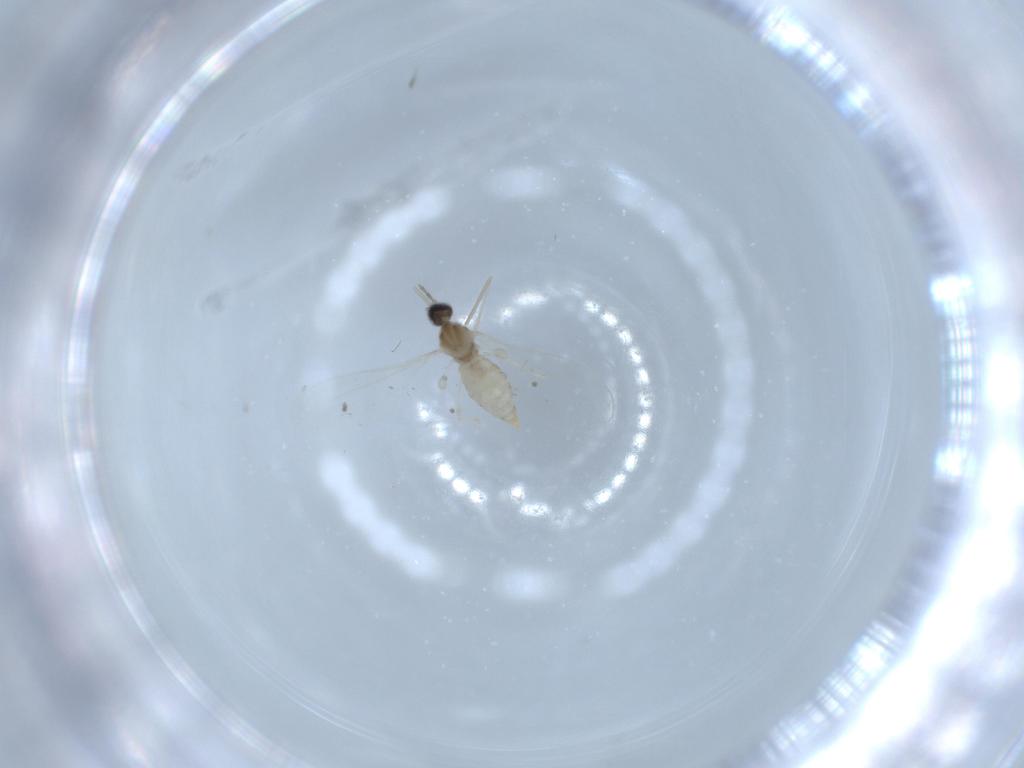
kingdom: Animalia
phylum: Arthropoda
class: Insecta
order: Diptera
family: Cecidomyiidae
